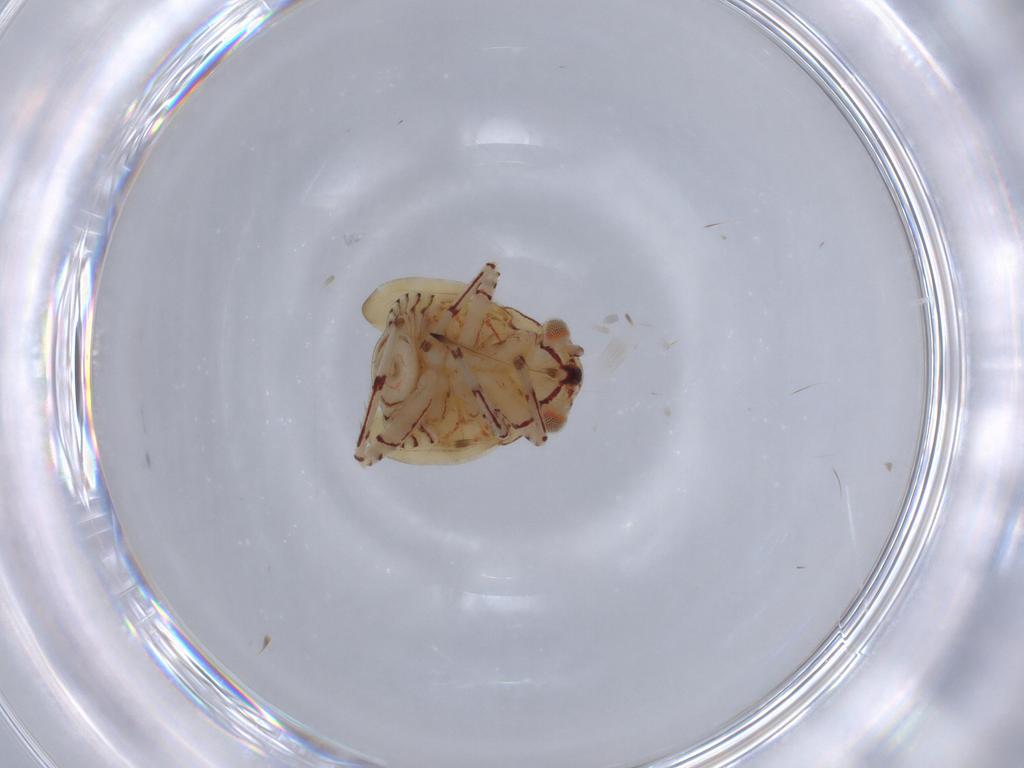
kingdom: Animalia
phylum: Arthropoda
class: Insecta
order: Hemiptera
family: Miridae
